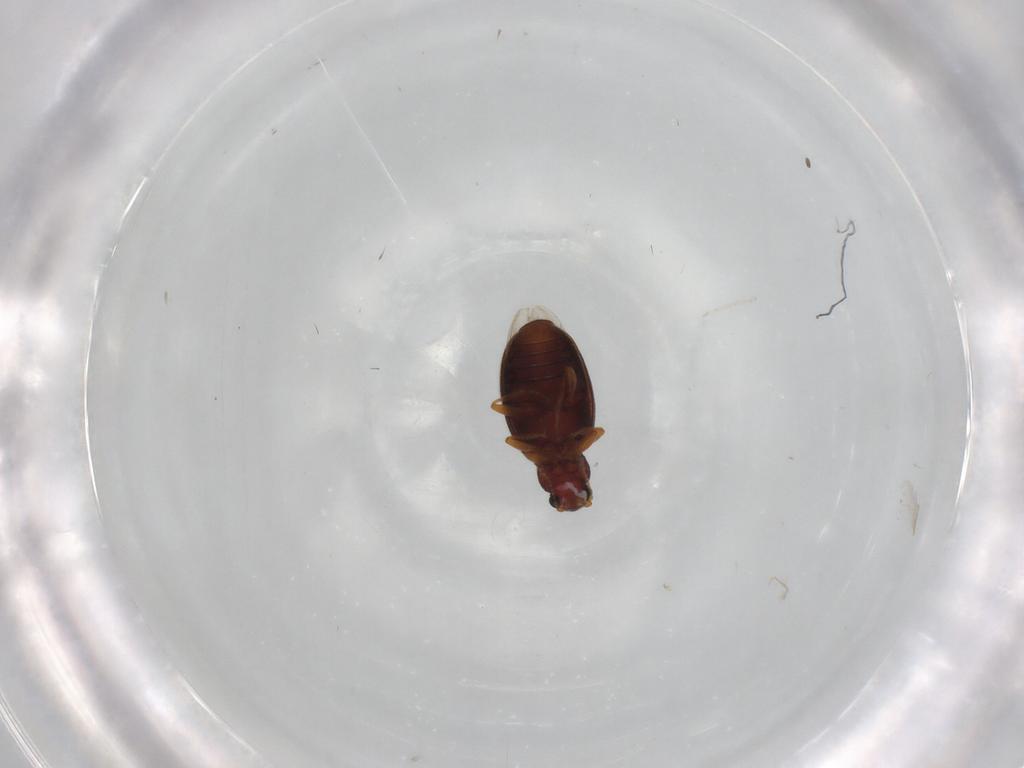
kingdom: Animalia
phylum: Arthropoda
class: Insecta
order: Coleoptera
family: Latridiidae
